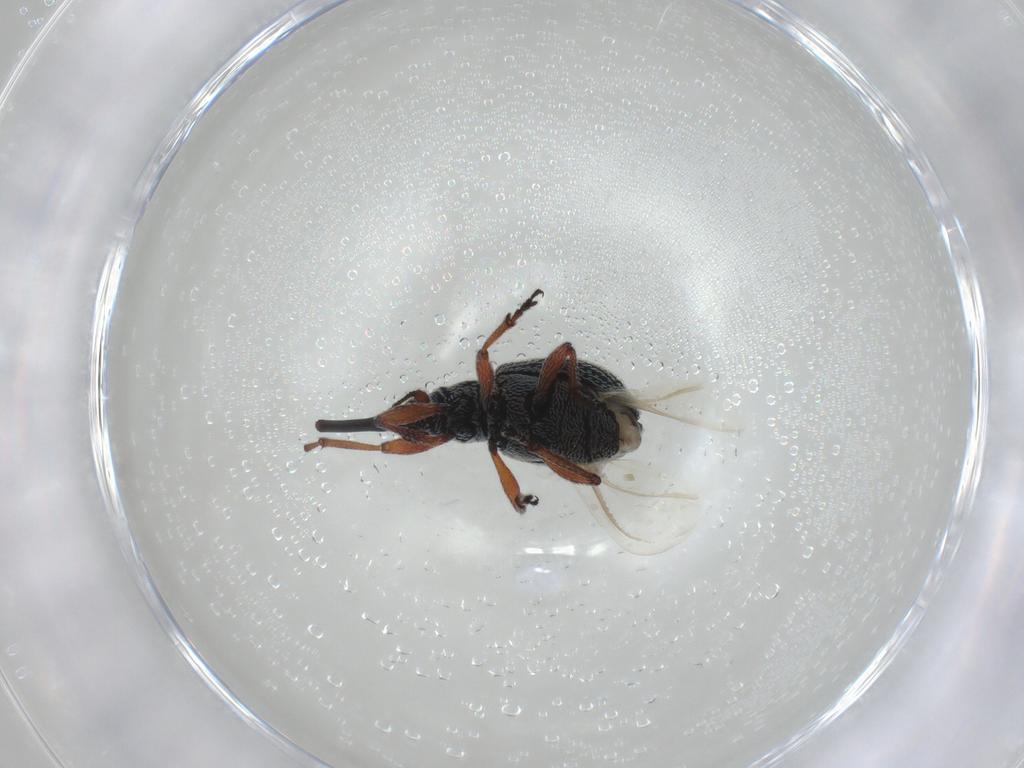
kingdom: Animalia
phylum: Arthropoda
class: Insecta
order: Coleoptera
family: Brentidae
